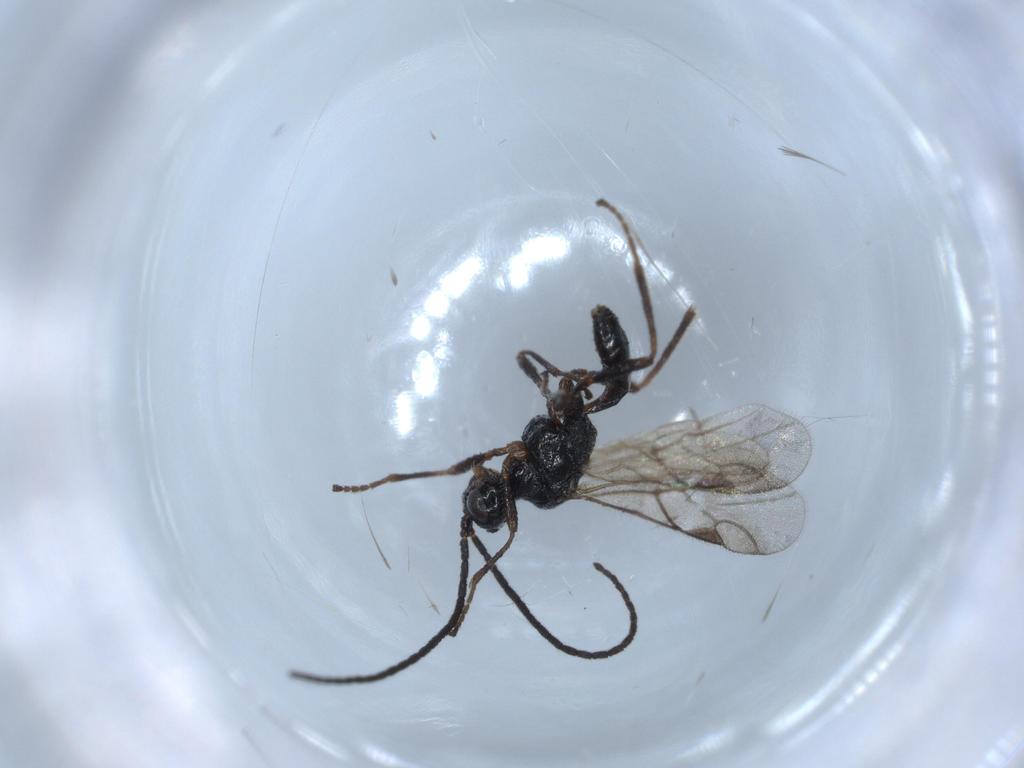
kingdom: Animalia
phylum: Arthropoda
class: Insecta
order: Hymenoptera
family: Braconidae
